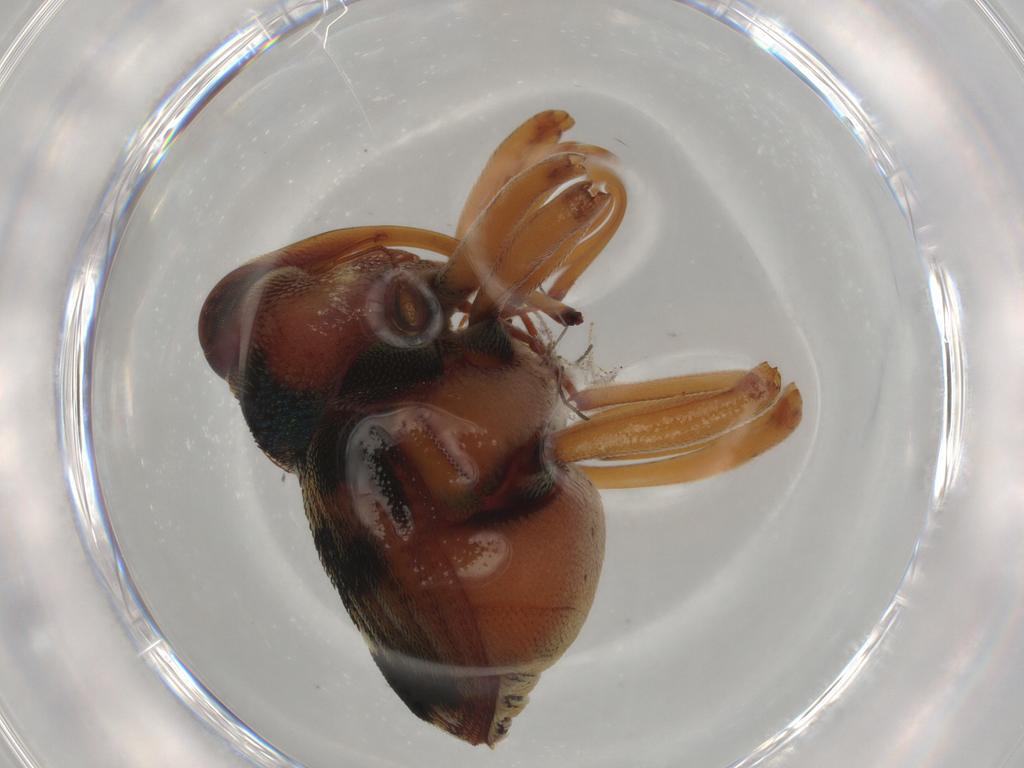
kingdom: Animalia
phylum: Arthropoda
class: Insecta
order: Coleoptera
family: Curculionidae
